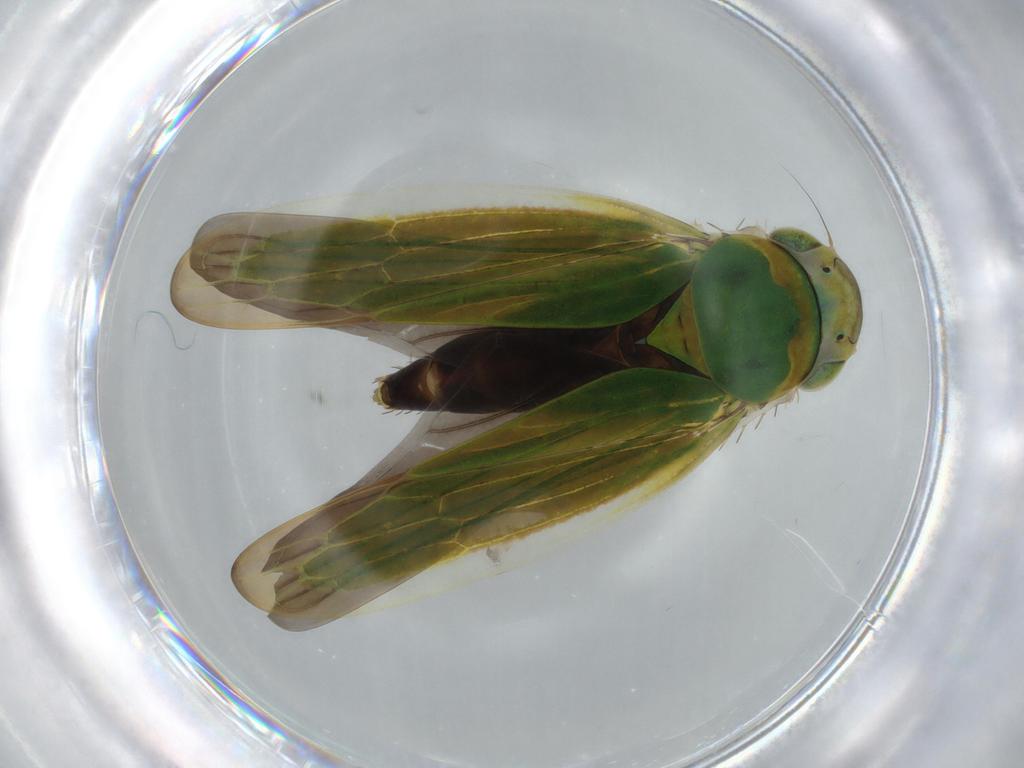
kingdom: Animalia
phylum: Arthropoda
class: Insecta
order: Hemiptera
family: Cicadellidae
